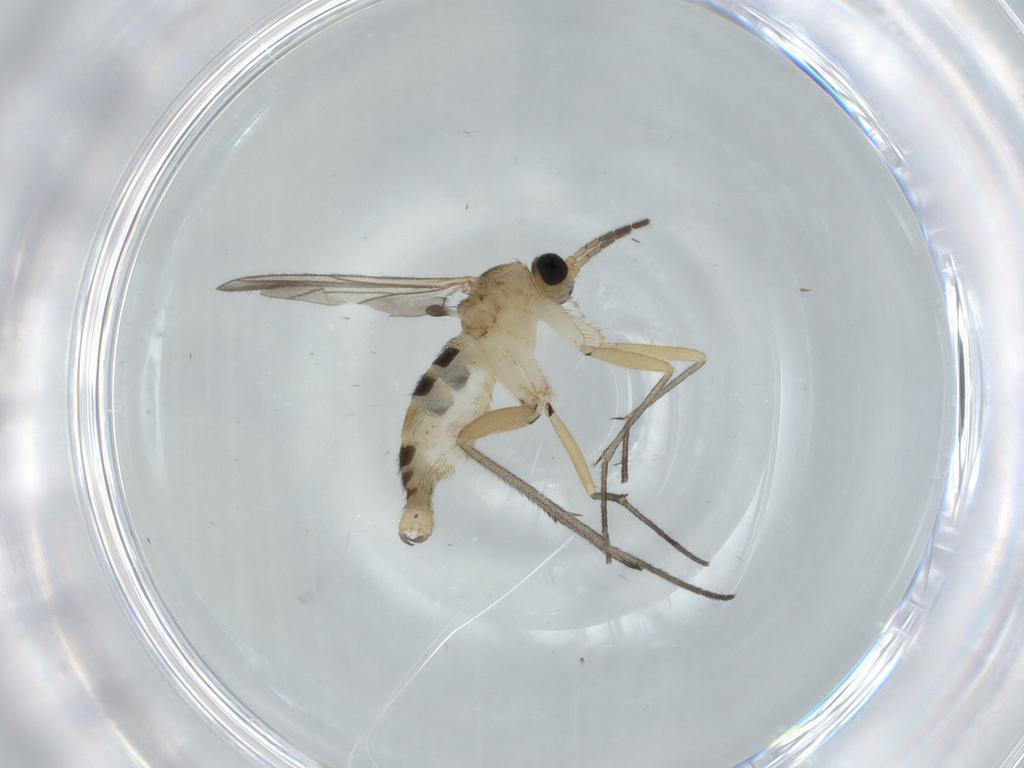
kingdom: Animalia
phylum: Arthropoda
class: Insecta
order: Diptera
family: Sciaridae
